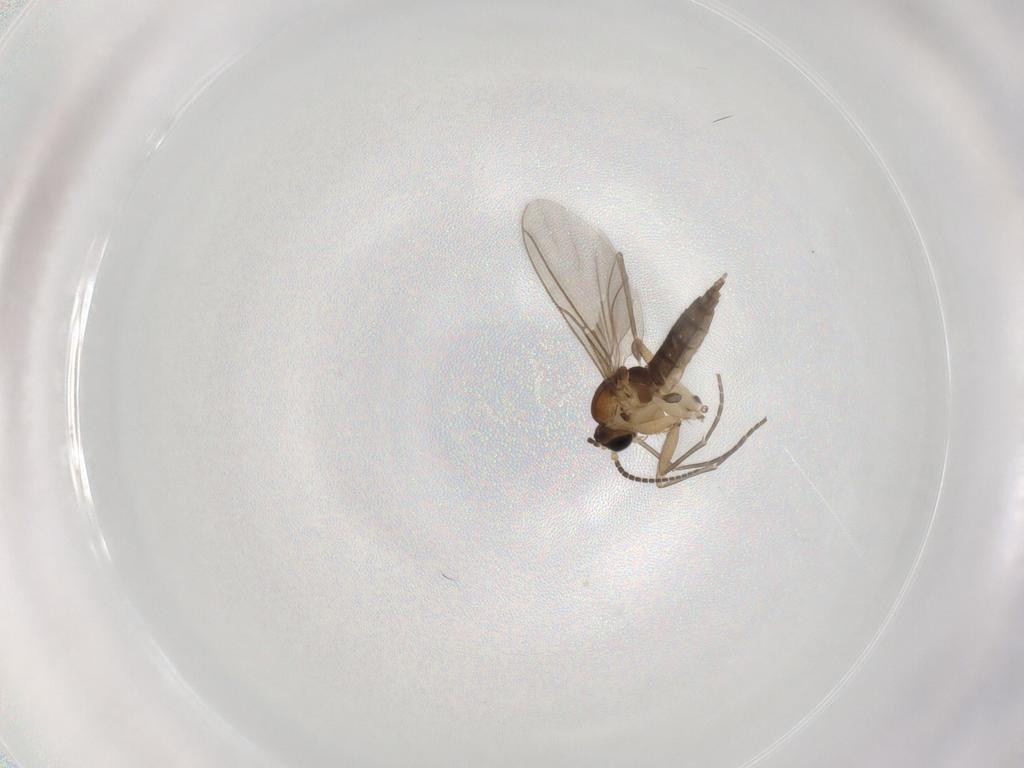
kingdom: Animalia
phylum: Arthropoda
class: Insecta
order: Diptera
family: Sciaridae
